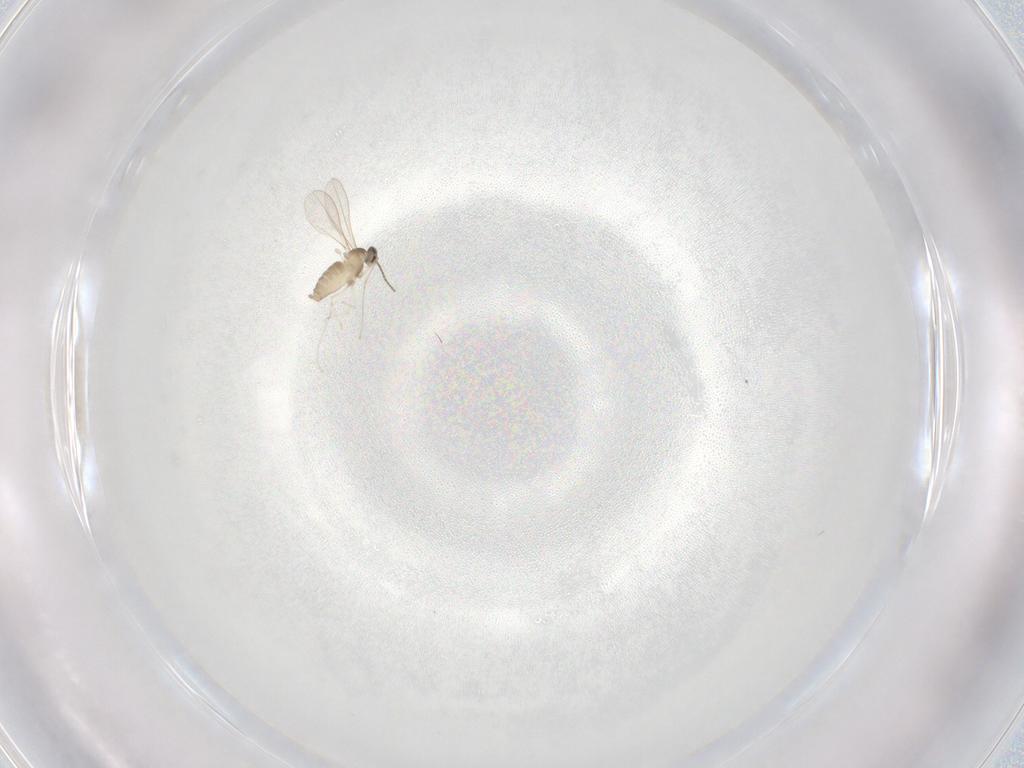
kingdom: Animalia
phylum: Arthropoda
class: Insecta
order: Diptera
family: Cecidomyiidae
